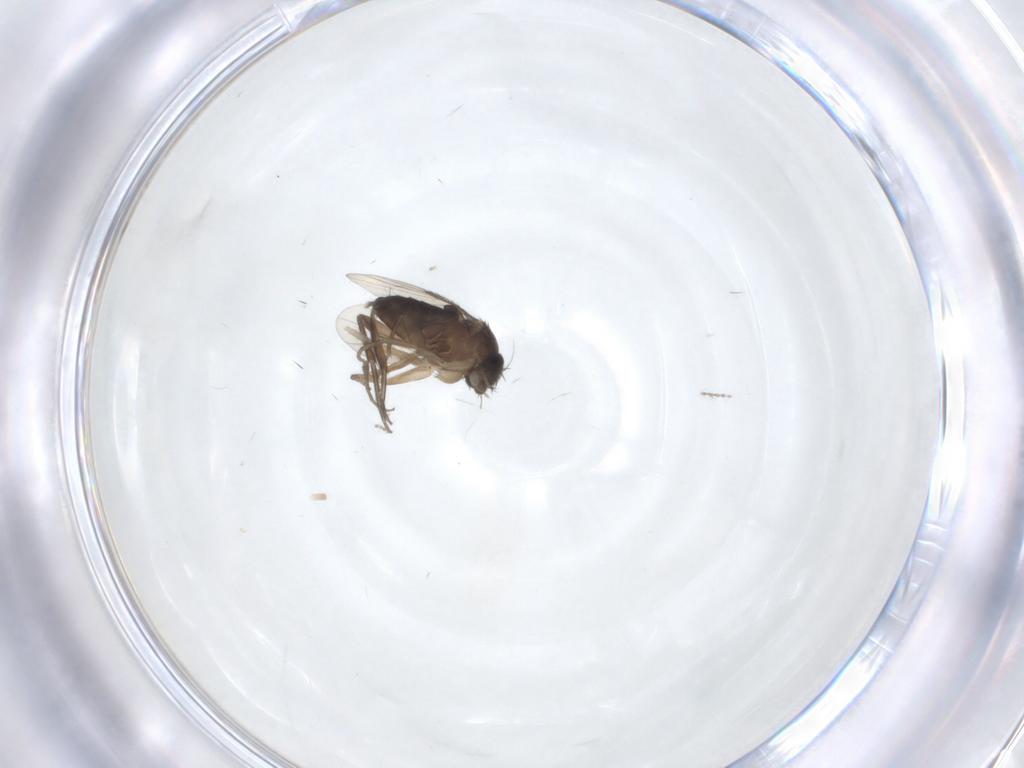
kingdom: Animalia
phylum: Arthropoda
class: Insecta
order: Diptera
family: Phoridae
